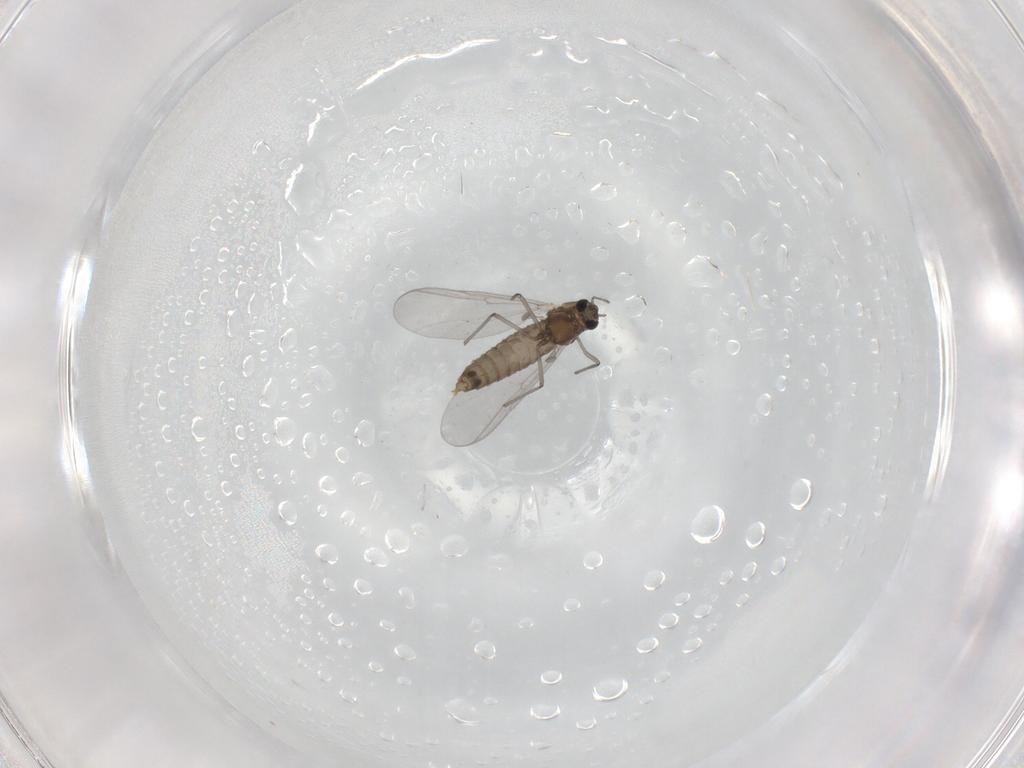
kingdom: Animalia
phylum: Arthropoda
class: Insecta
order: Diptera
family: Chironomidae
